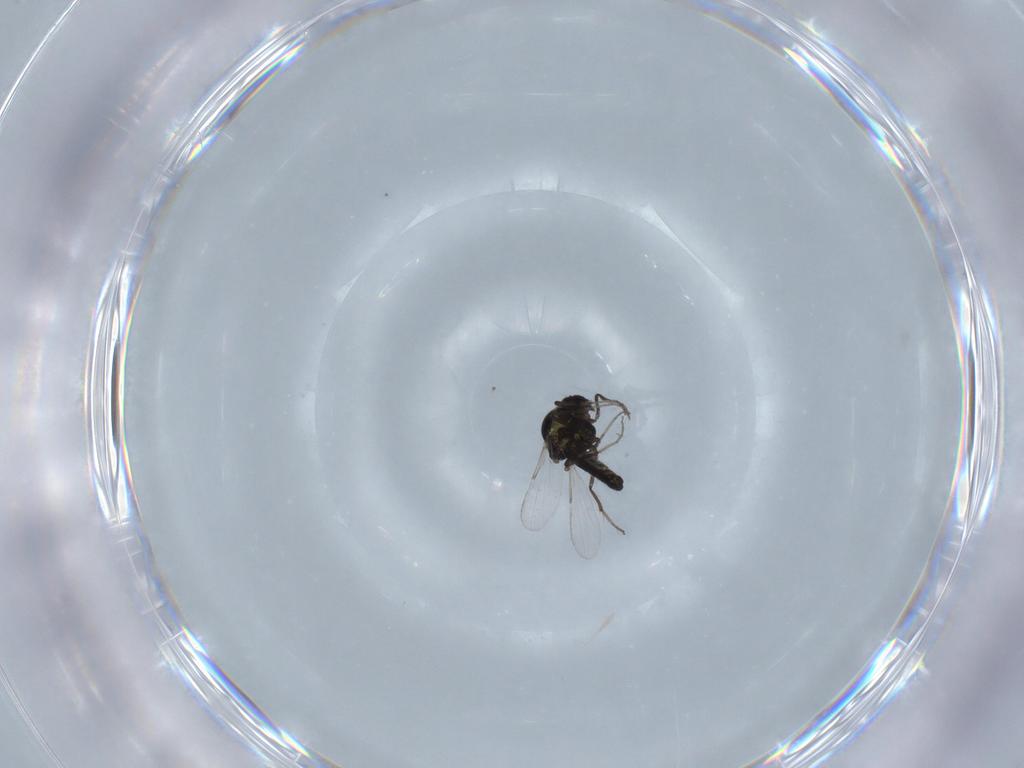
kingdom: Animalia
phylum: Arthropoda
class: Insecta
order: Diptera
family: Ceratopogonidae
